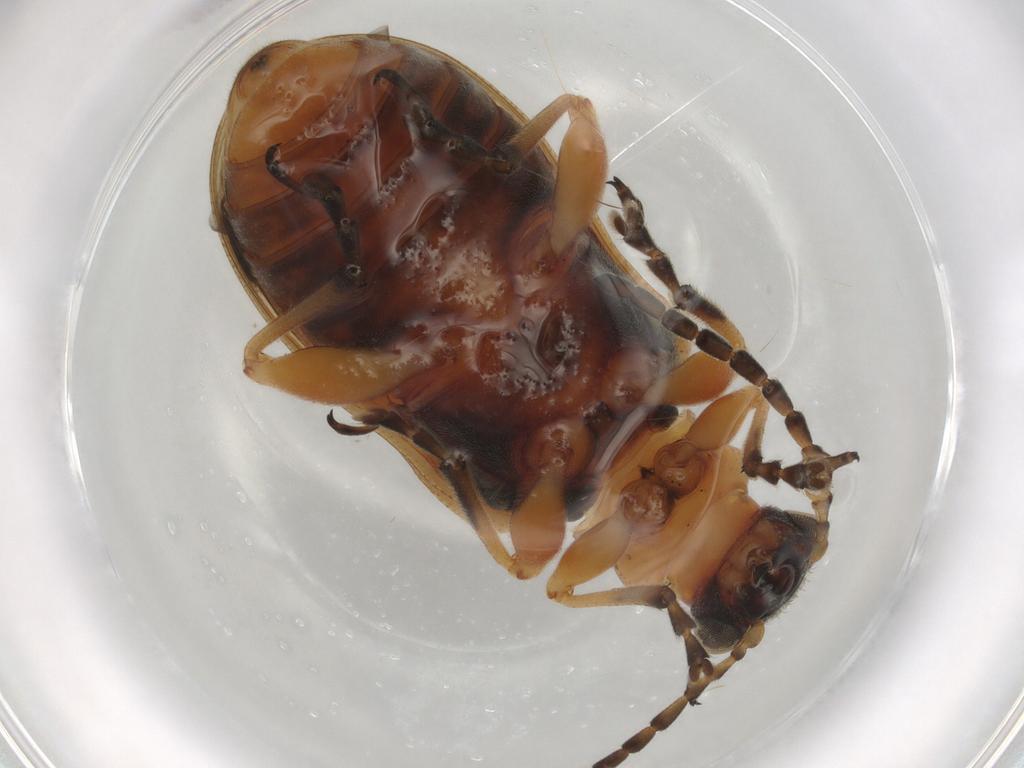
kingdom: Animalia
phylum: Arthropoda
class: Insecta
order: Coleoptera
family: Chrysomelidae
